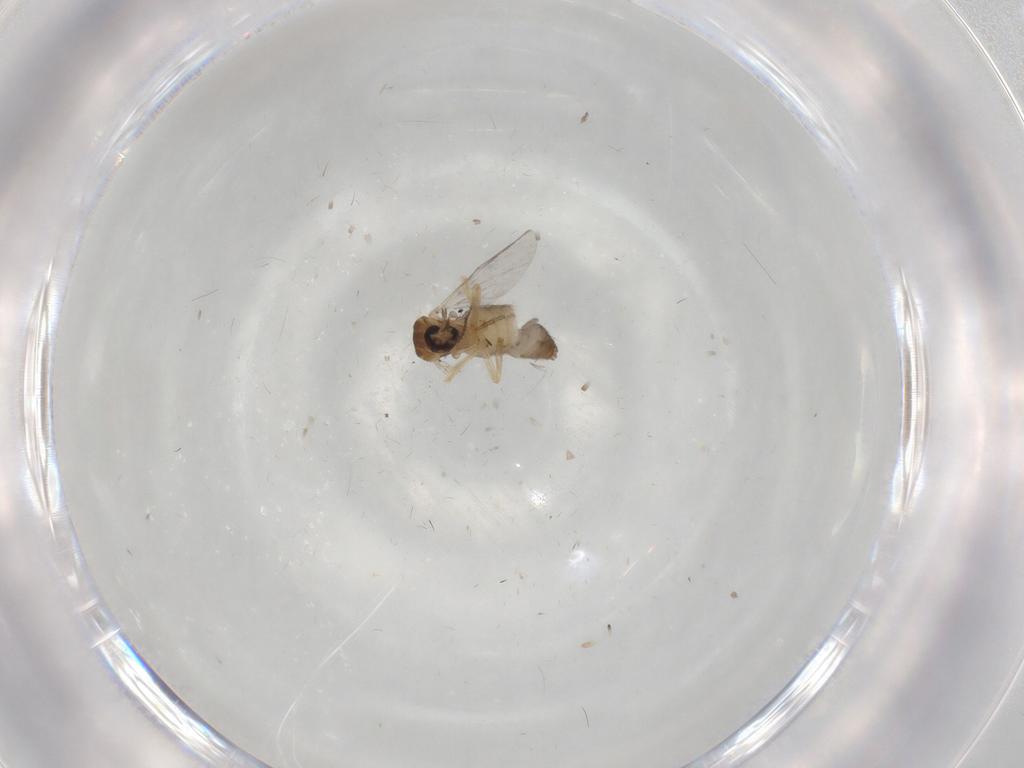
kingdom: Animalia
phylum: Arthropoda
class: Insecta
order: Diptera
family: Ceratopogonidae
